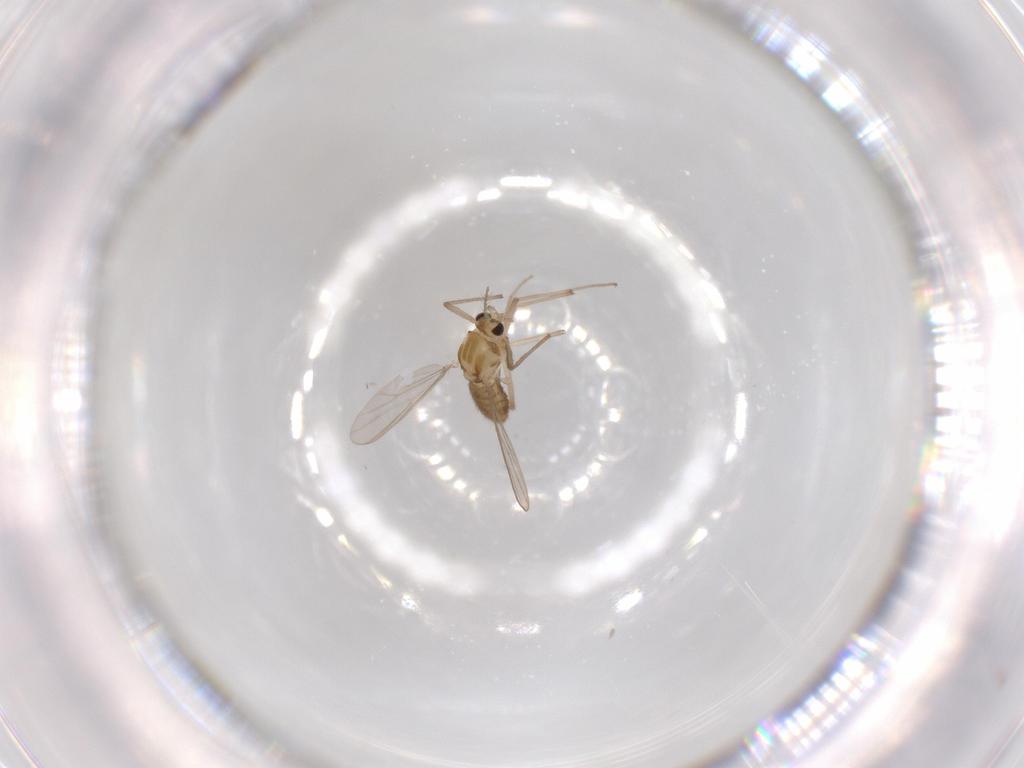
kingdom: Animalia
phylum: Arthropoda
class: Insecta
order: Diptera
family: Chironomidae
